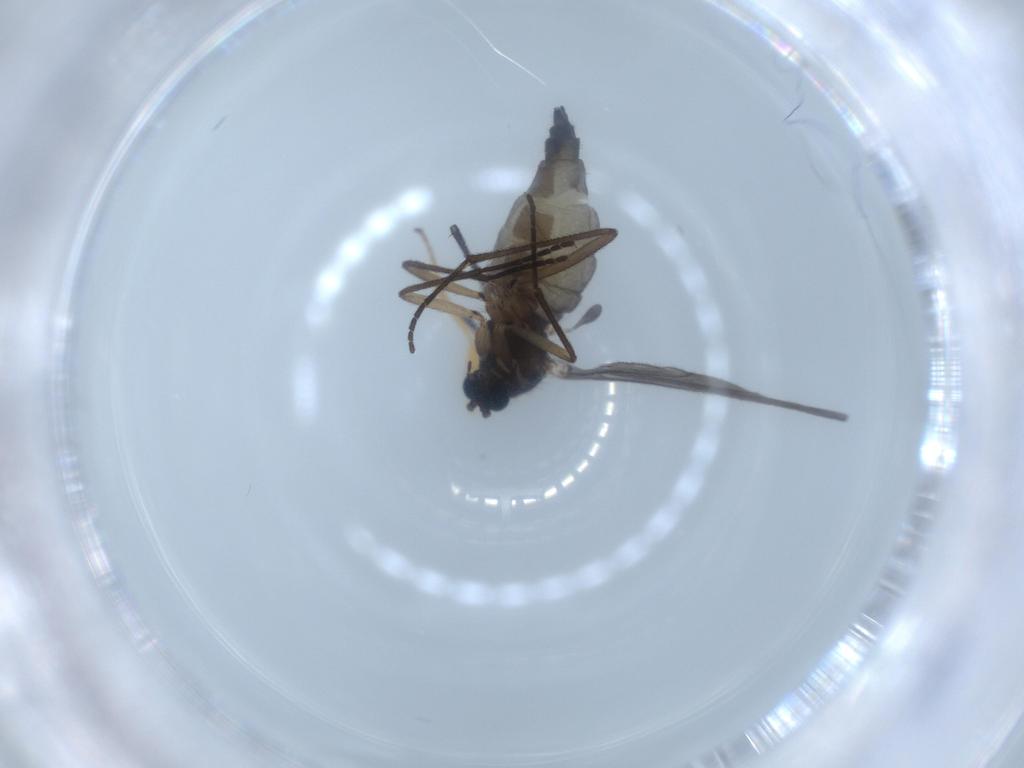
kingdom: Animalia
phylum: Arthropoda
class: Insecta
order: Diptera
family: Sciaridae
